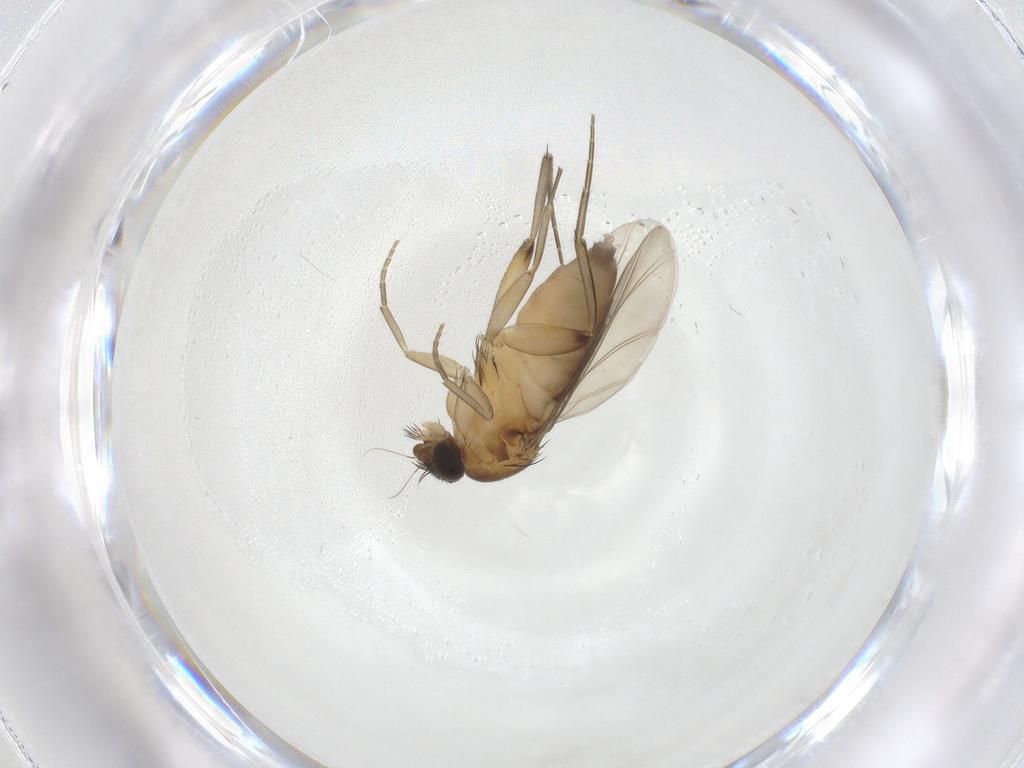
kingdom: Animalia
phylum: Arthropoda
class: Insecta
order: Diptera
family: Phoridae
